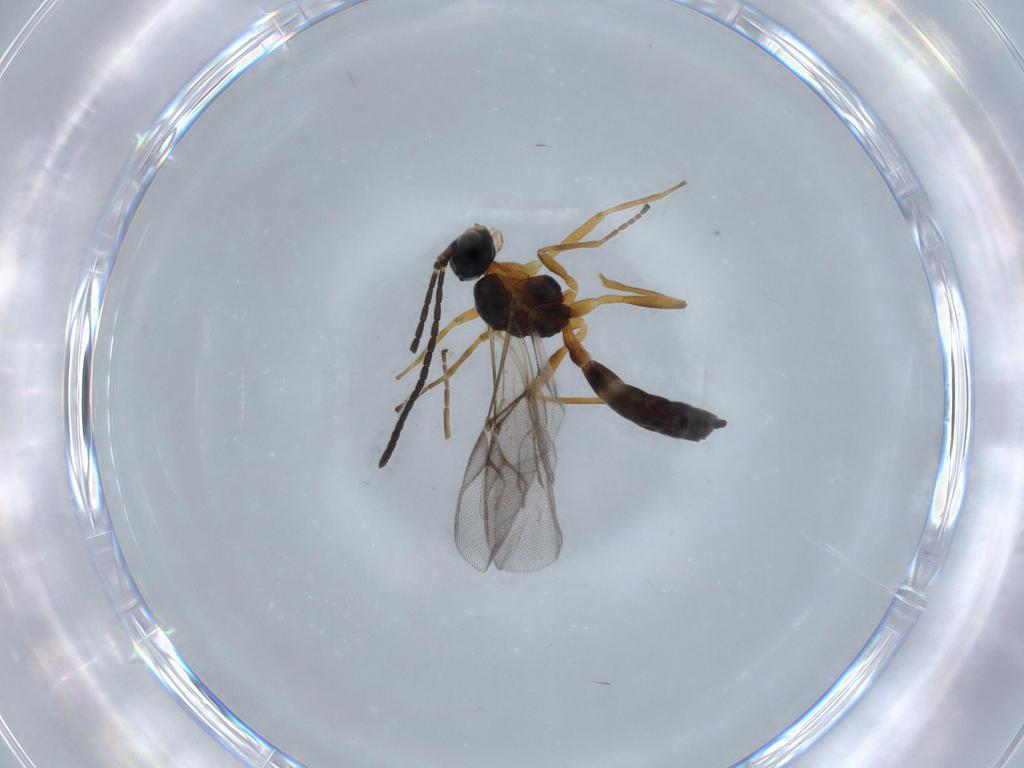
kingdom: Animalia
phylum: Arthropoda
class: Insecta
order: Hymenoptera
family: Braconidae
